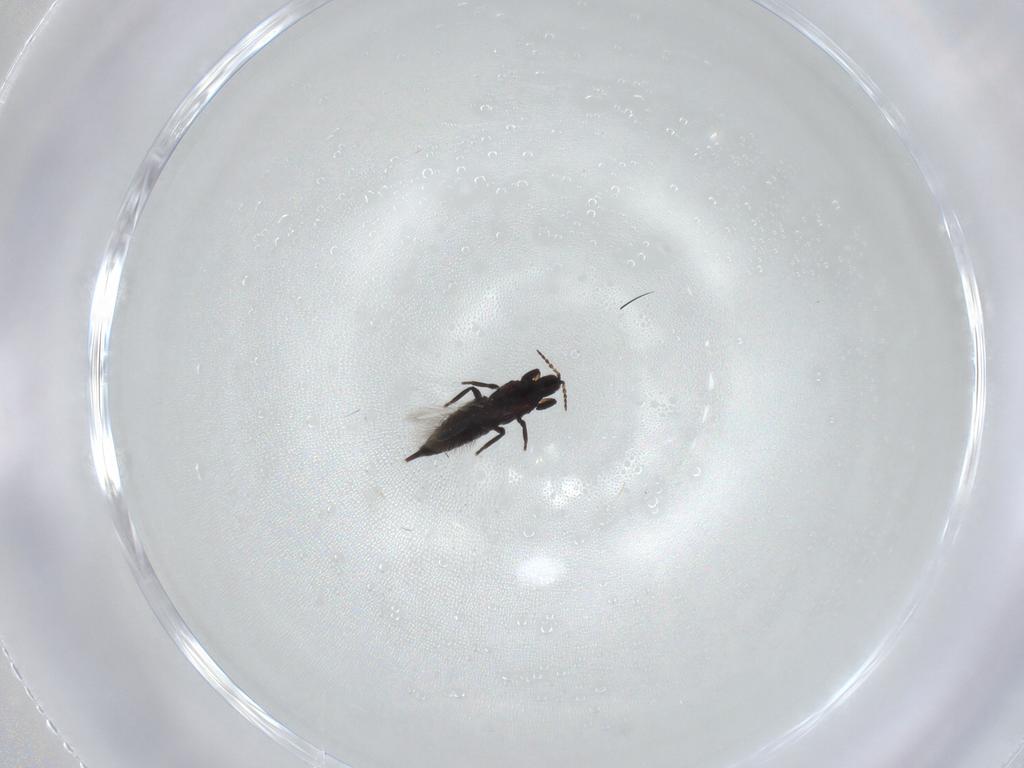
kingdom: Animalia
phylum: Arthropoda
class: Insecta
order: Thysanoptera
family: Phlaeothripidae
